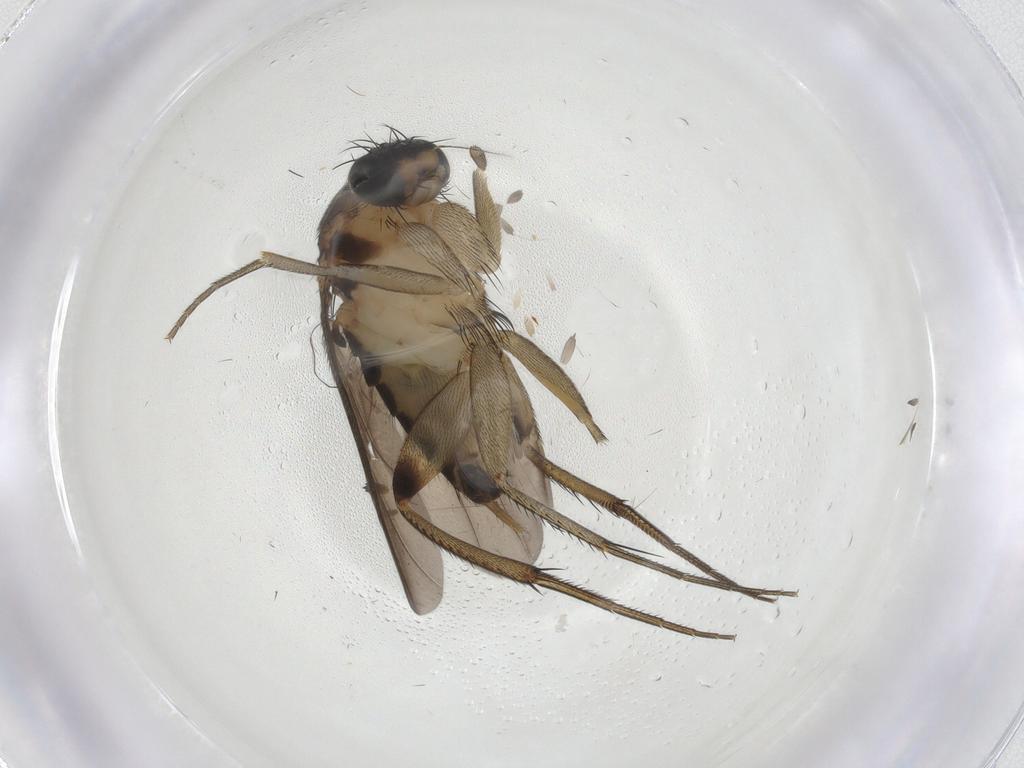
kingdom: Animalia
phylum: Arthropoda
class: Insecta
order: Diptera
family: Phoridae
